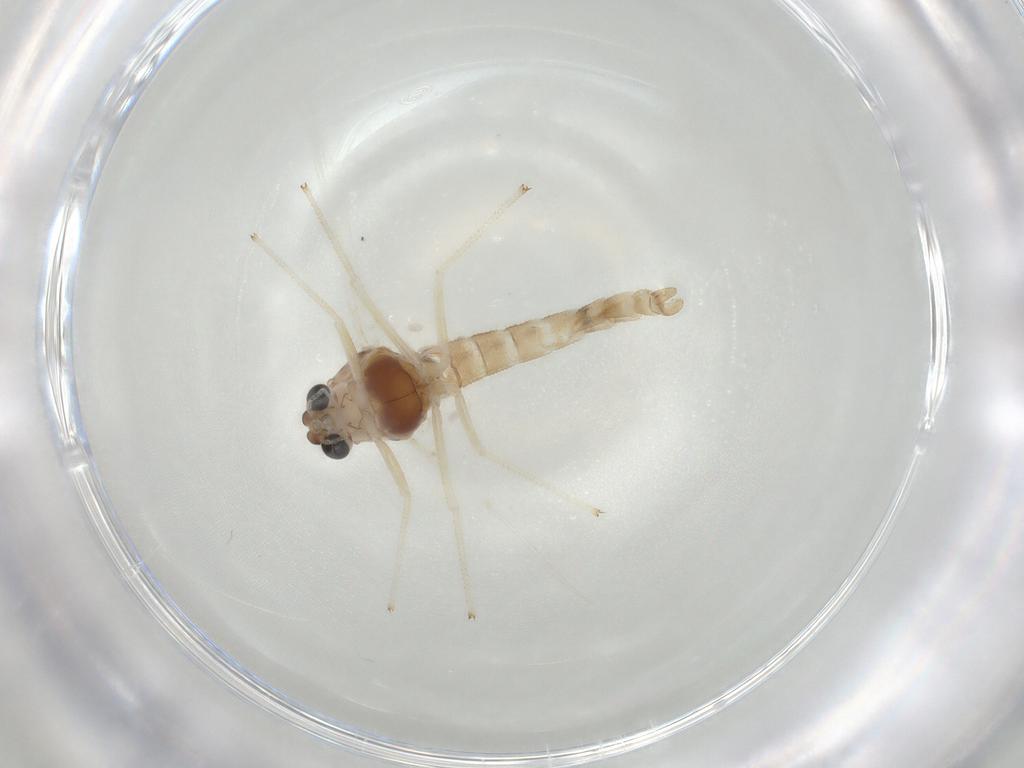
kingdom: Animalia
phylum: Arthropoda
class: Insecta
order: Diptera
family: Chironomidae
